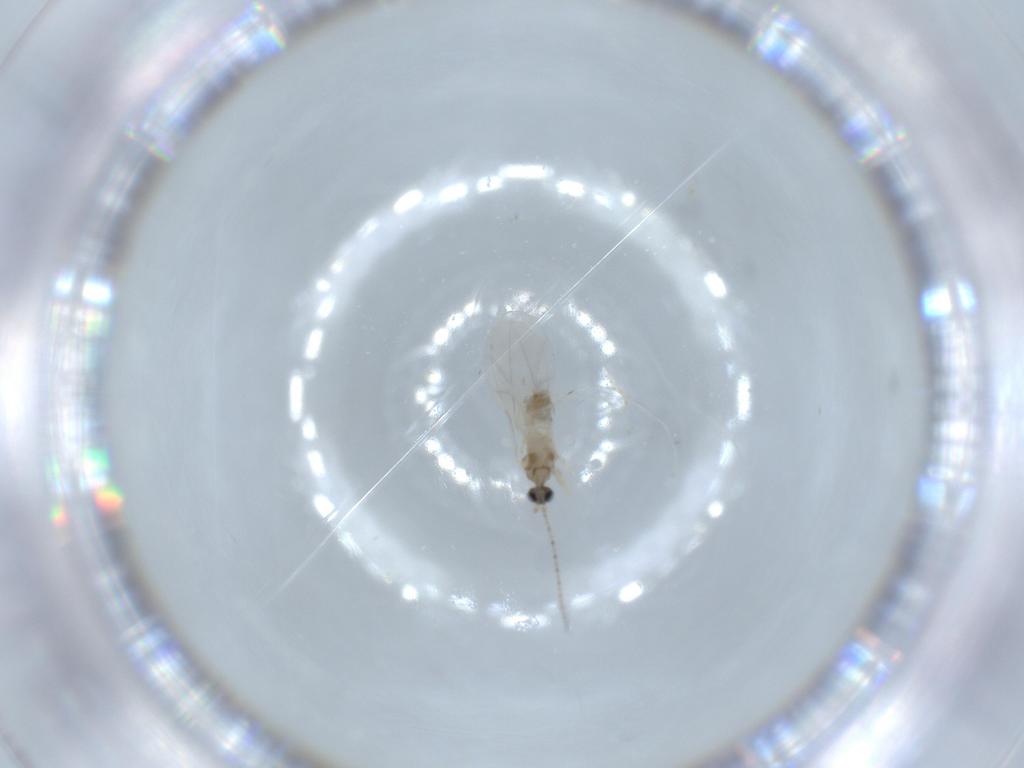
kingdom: Animalia
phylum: Arthropoda
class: Insecta
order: Diptera
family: Cecidomyiidae
